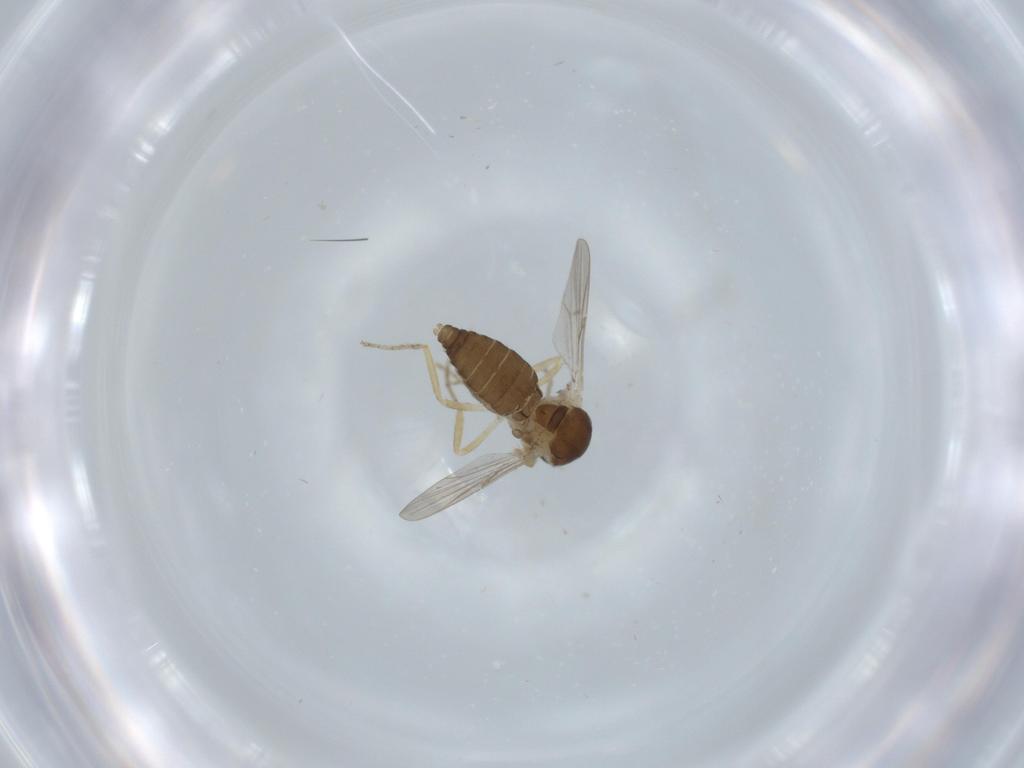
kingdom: Animalia
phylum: Arthropoda
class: Insecta
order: Diptera
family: Ceratopogonidae
